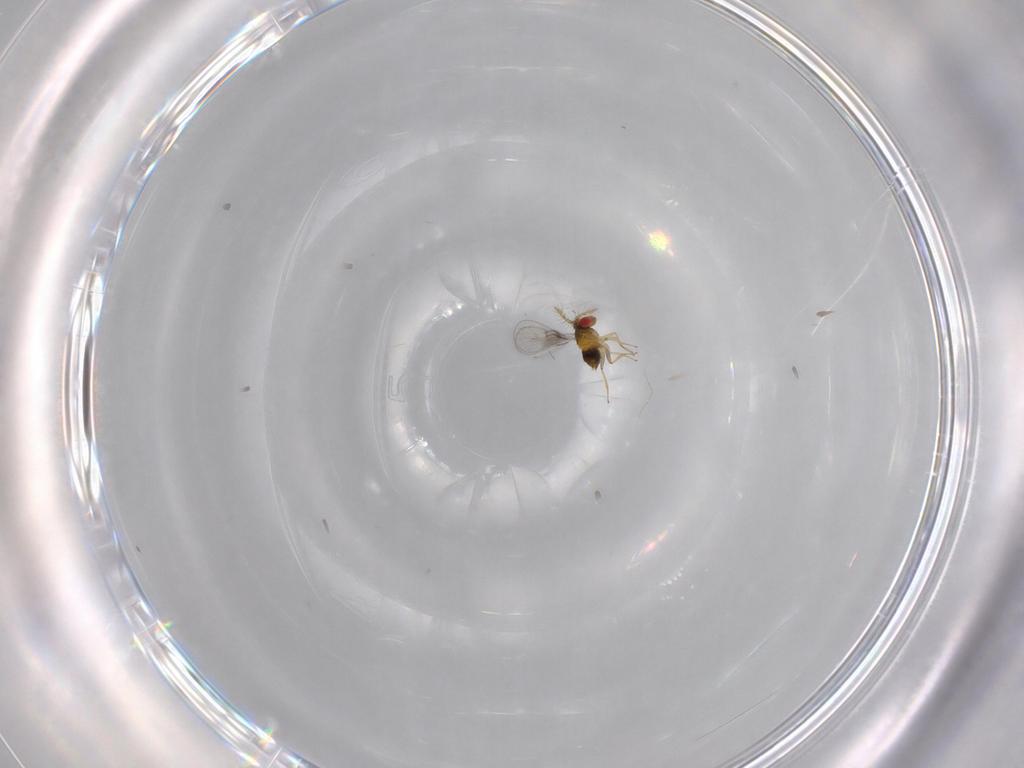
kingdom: Animalia
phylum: Arthropoda
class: Insecta
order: Hymenoptera
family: Trichogrammatidae
